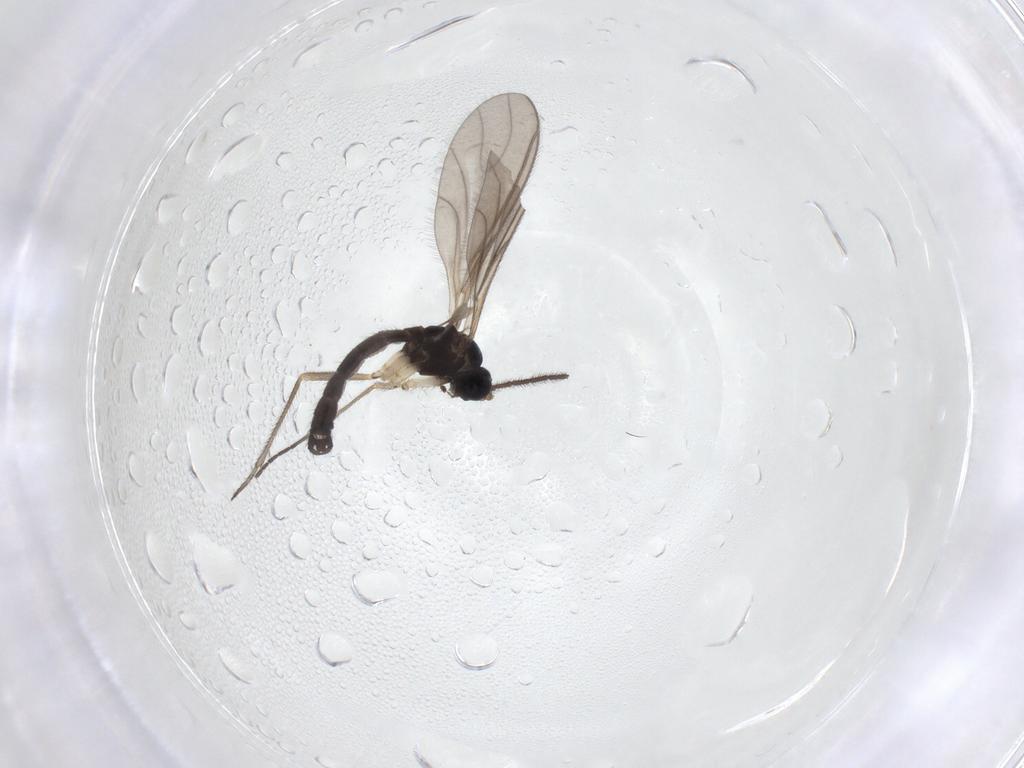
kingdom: Animalia
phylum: Arthropoda
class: Insecta
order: Diptera
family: Sciaridae
